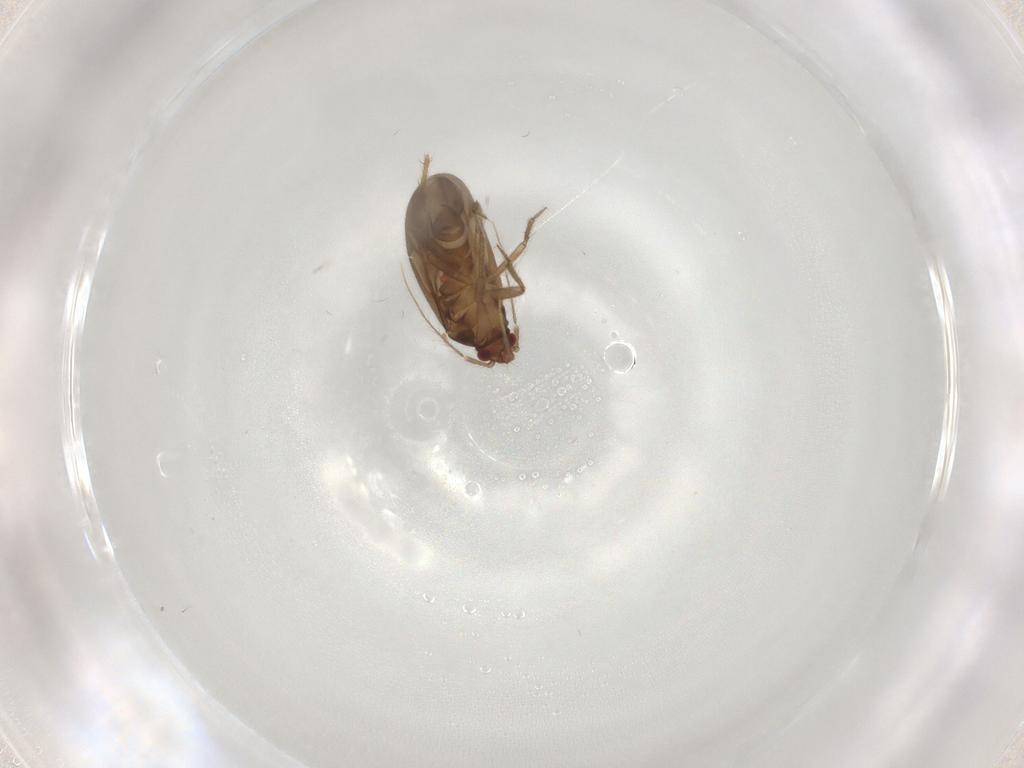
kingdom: Animalia
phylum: Arthropoda
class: Insecta
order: Hemiptera
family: Ceratocombidae
